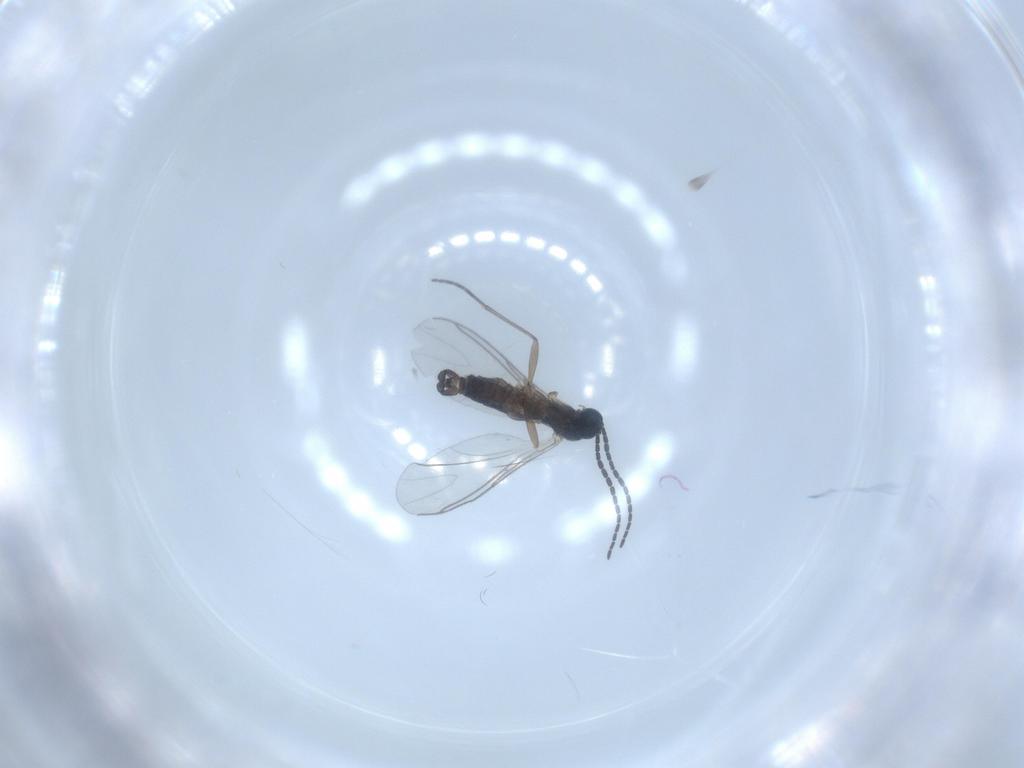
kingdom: Animalia
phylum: Arthropoda
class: Insecta
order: Diptera
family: Sciaridae
